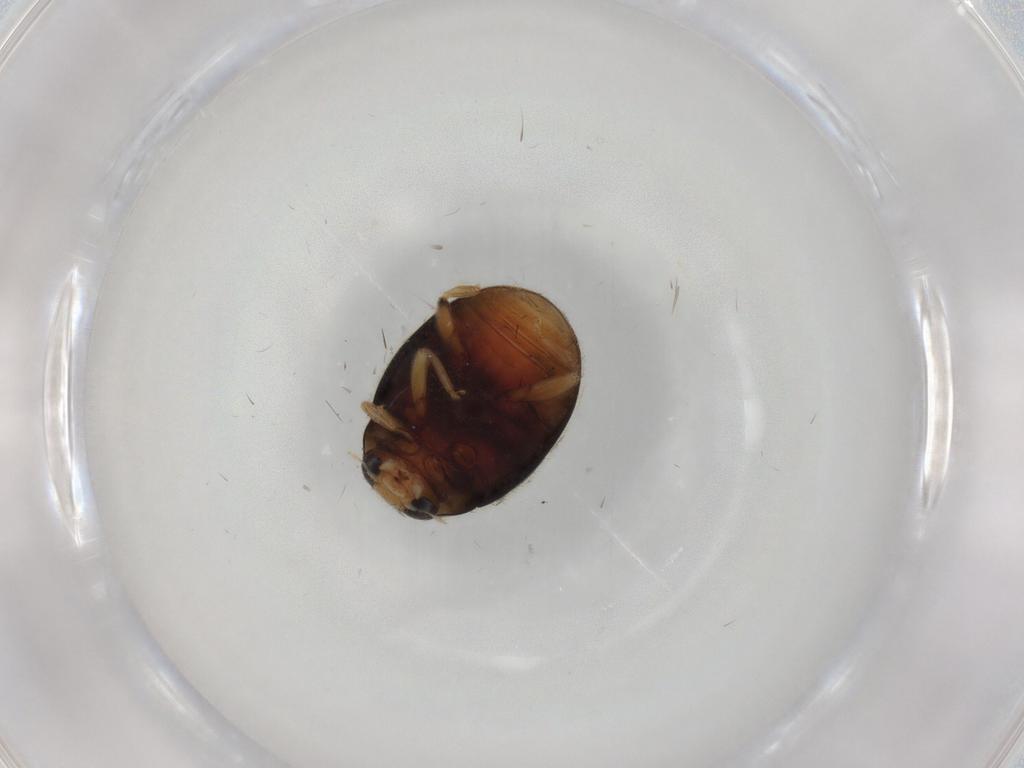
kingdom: Animalia
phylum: Arthropoda
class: Insecta
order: Coleoptera
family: Coccinellidae
